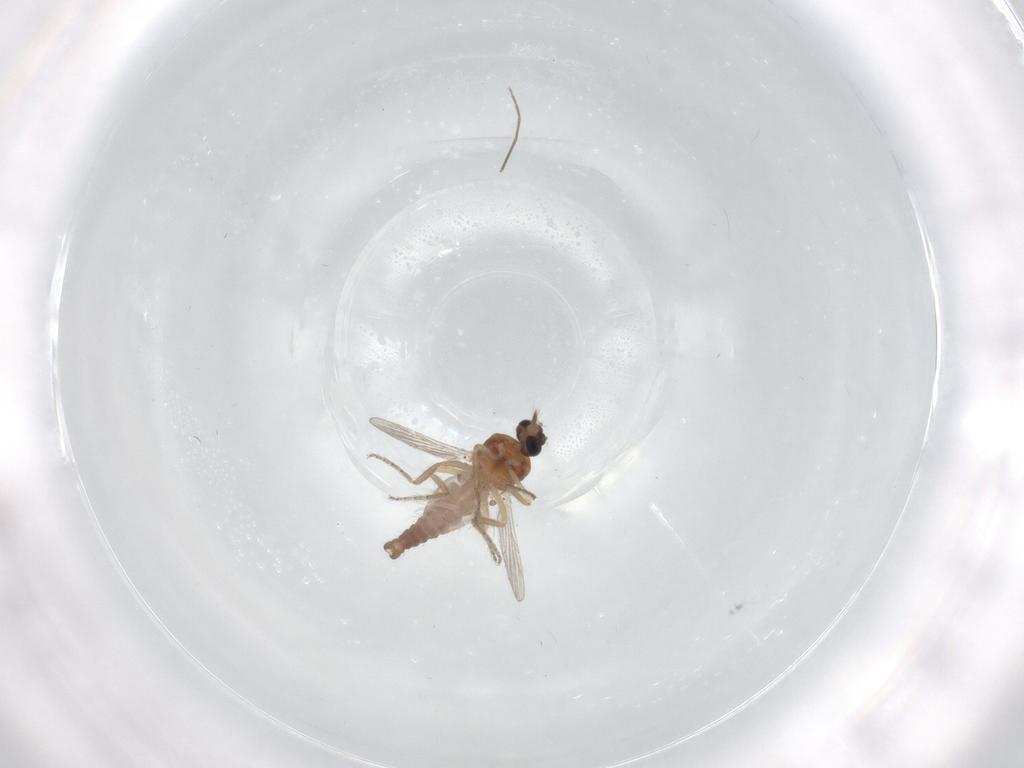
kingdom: Animalia
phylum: Arthropoda
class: Insecta
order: Diptera
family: Ceratopogonidae
